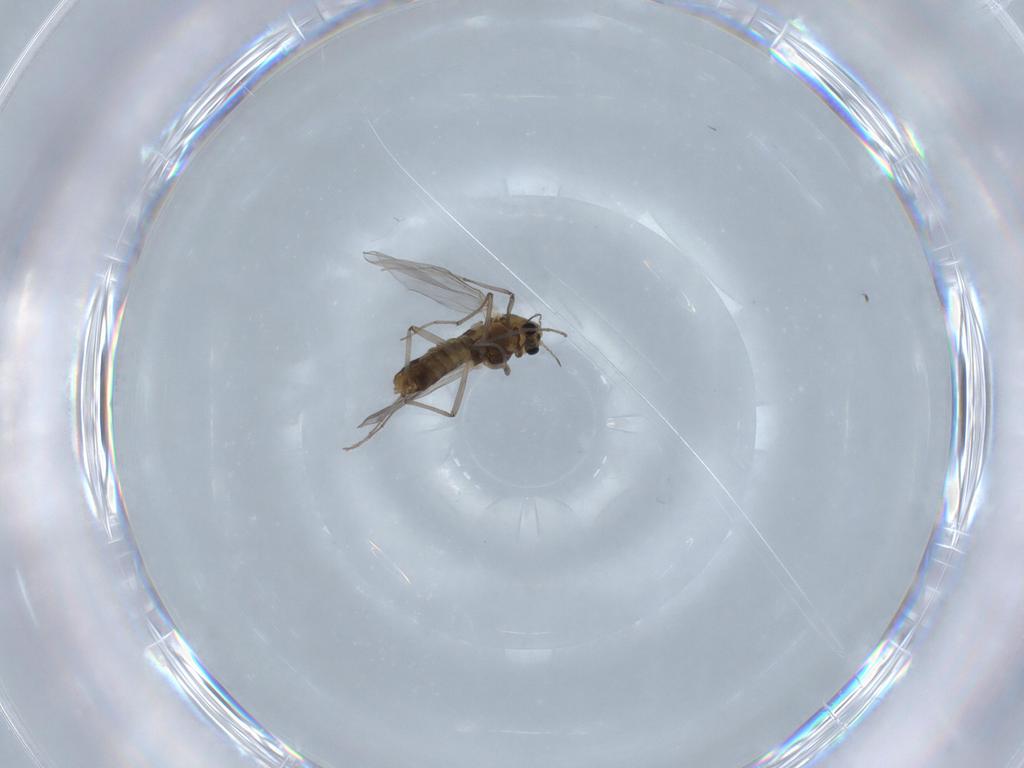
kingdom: Animalia
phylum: Arthropoda
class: Insecta
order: Diptera
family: Chironomidae
